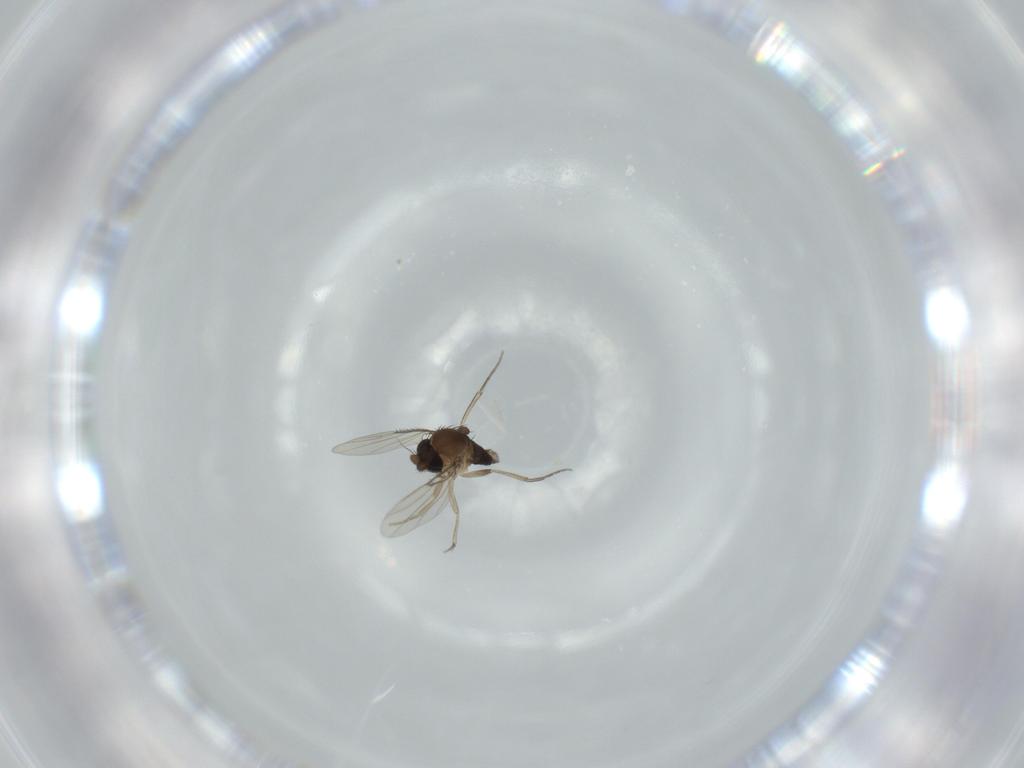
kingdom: Animalia
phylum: Arthropoda
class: Insecta
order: Diptera
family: Phoridae
